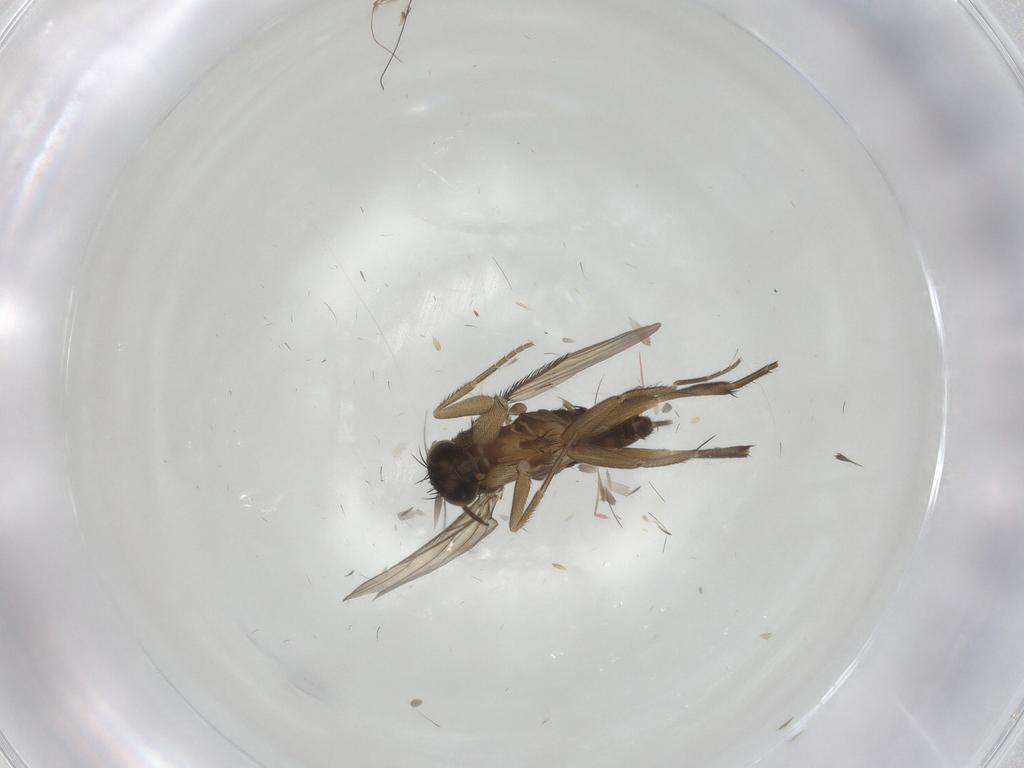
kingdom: Animalia
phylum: Arthropoda
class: Insecta
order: Diptera
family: Phoridae
